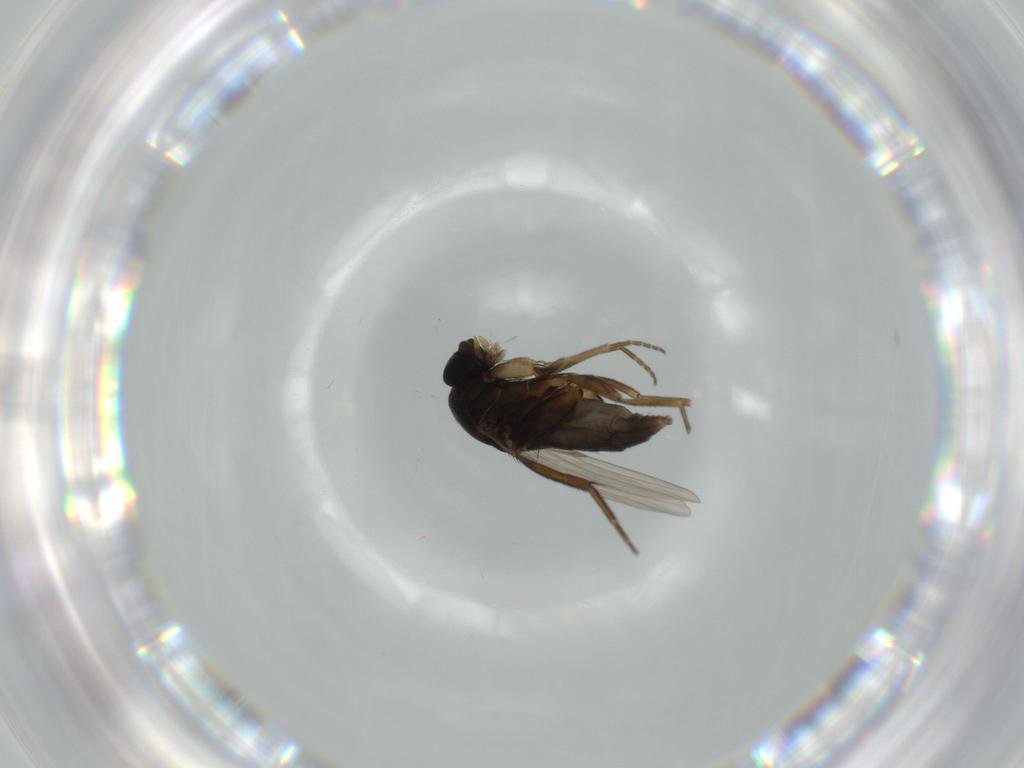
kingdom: Animalia
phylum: Arthropoda
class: Insecta
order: Diptera
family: Phoridae
